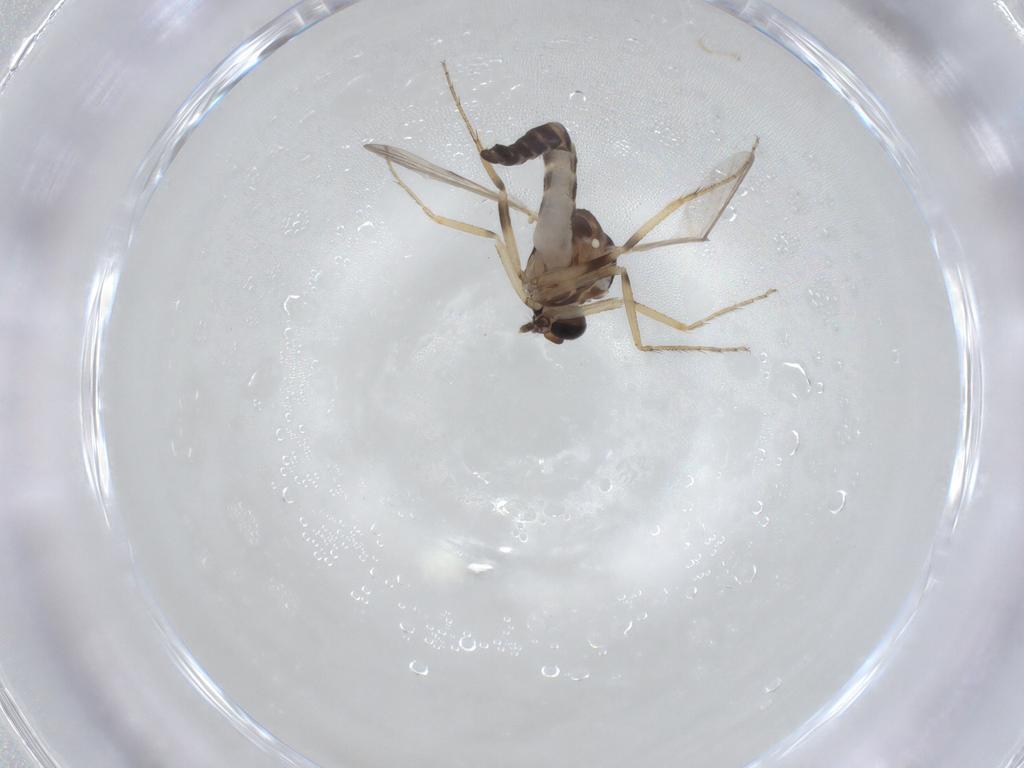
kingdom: Animalia
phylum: Arthropoda
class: Insecta
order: Diptera
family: Ceratopogonidae
